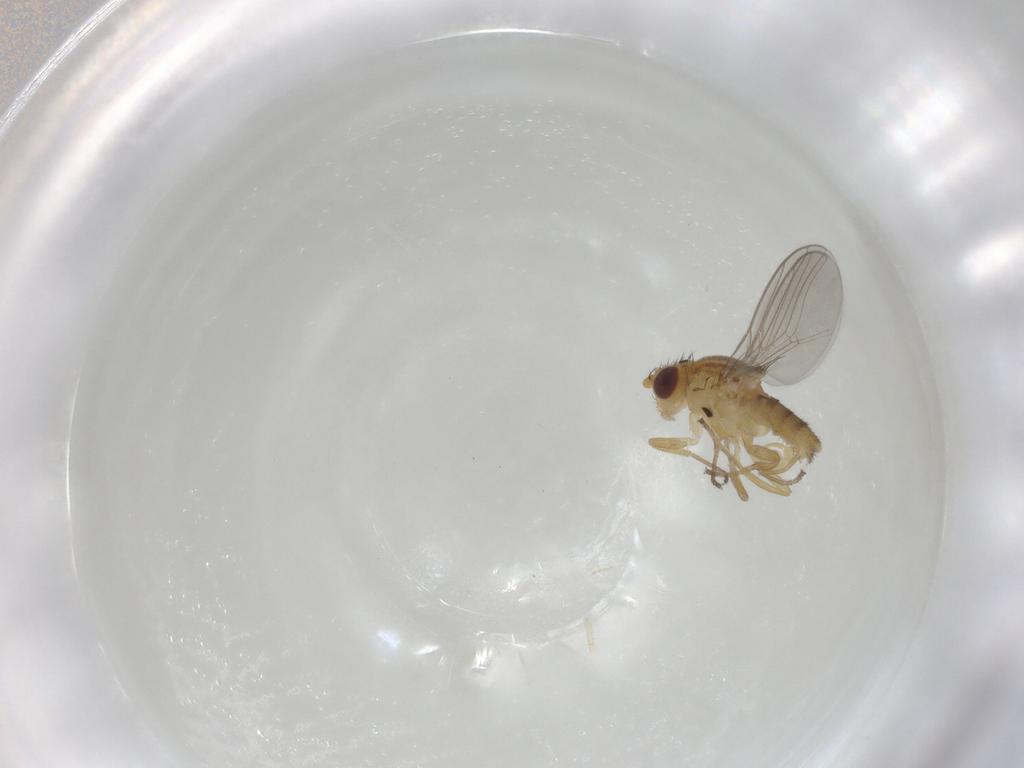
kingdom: Animalia
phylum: Arthropoda
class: Insecta
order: Diptera
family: Chloropidae
